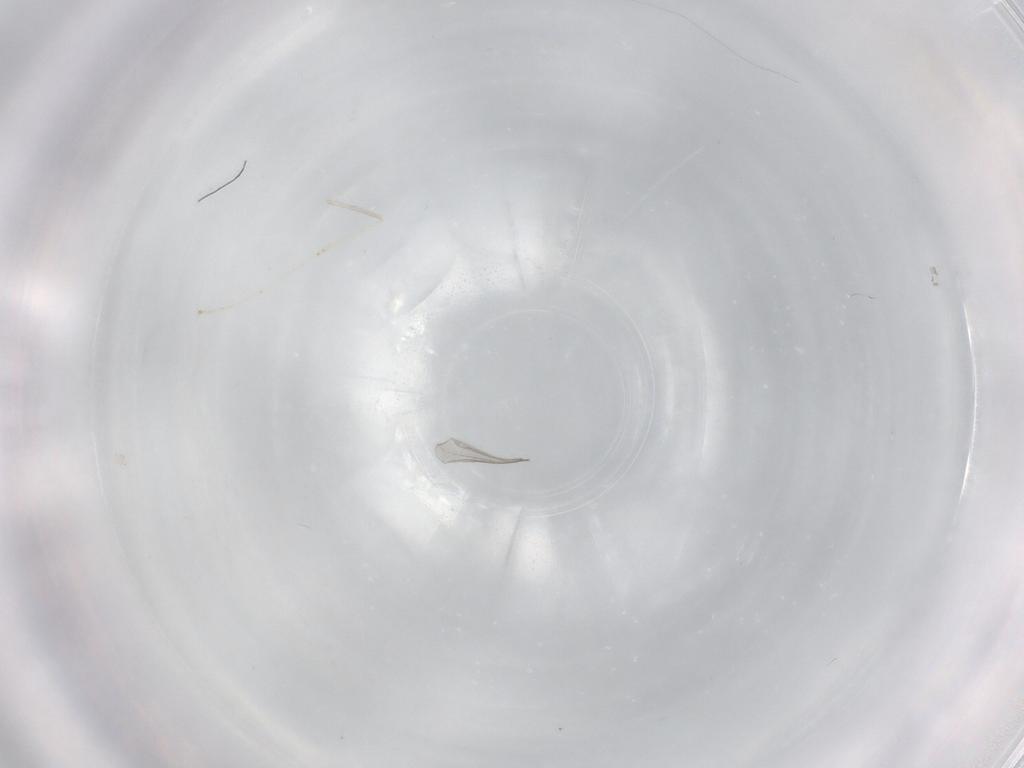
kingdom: Animalia
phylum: Arthropoda
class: Insecta
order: Diptera
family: Cecidomyiidae
